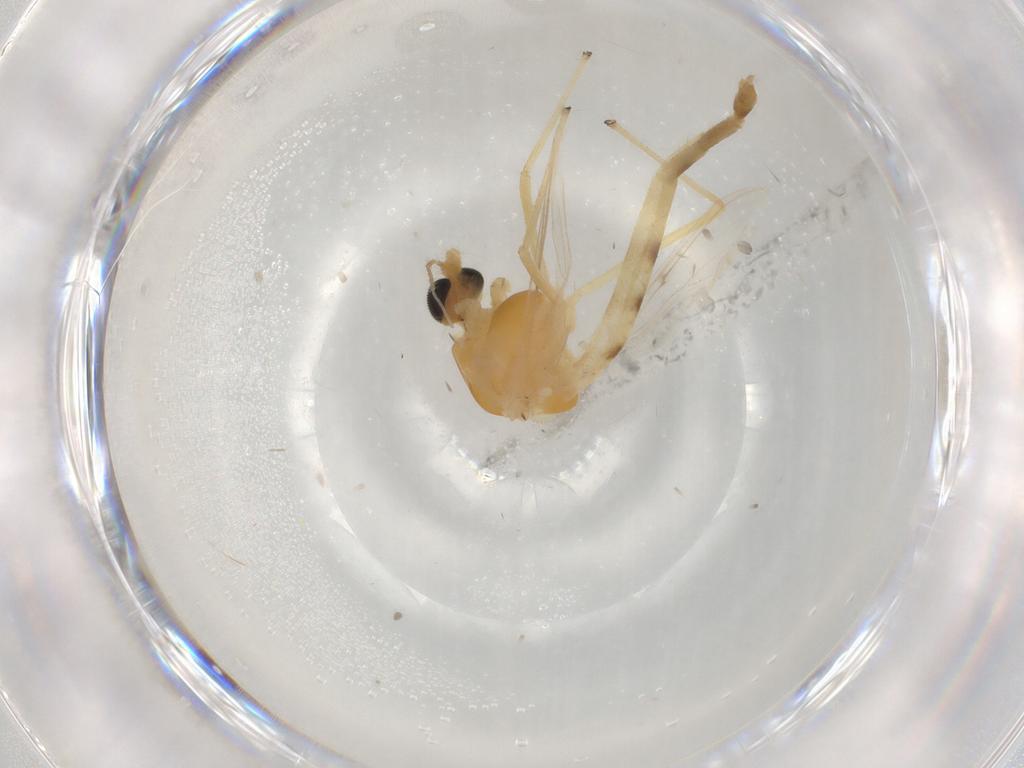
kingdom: Animalia
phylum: Arthropoda
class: Insecta
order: Diptera
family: Chironomidae
